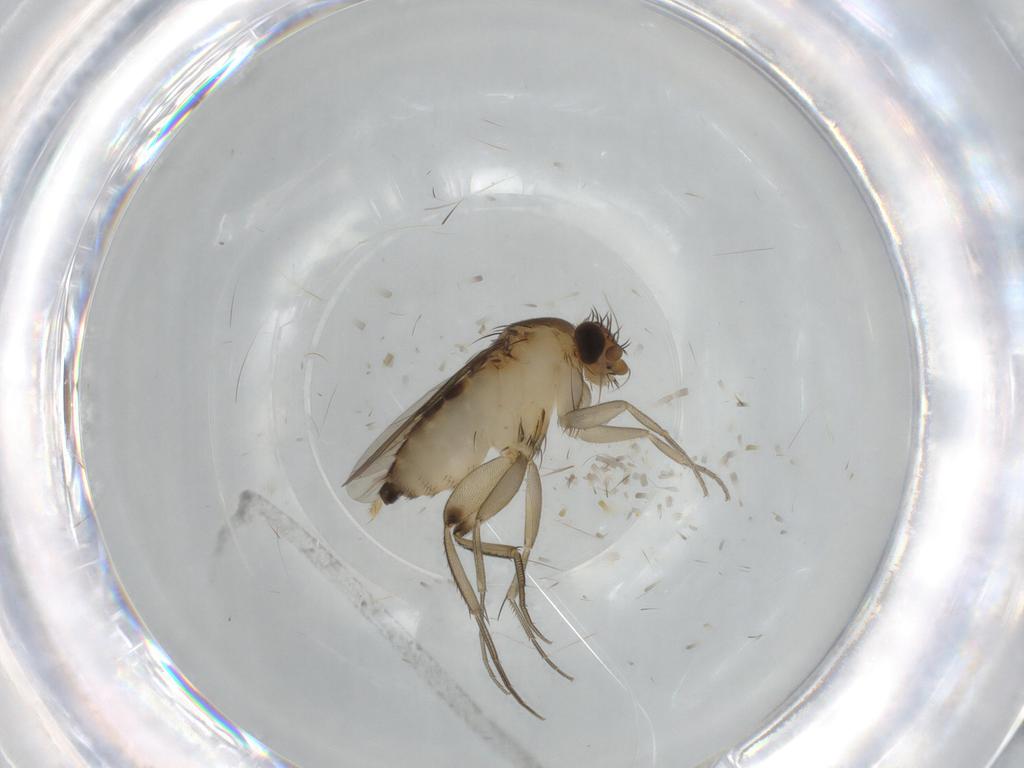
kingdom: Animalia
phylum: Arthropoda
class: Insecta
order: Diptera
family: Phoridae
